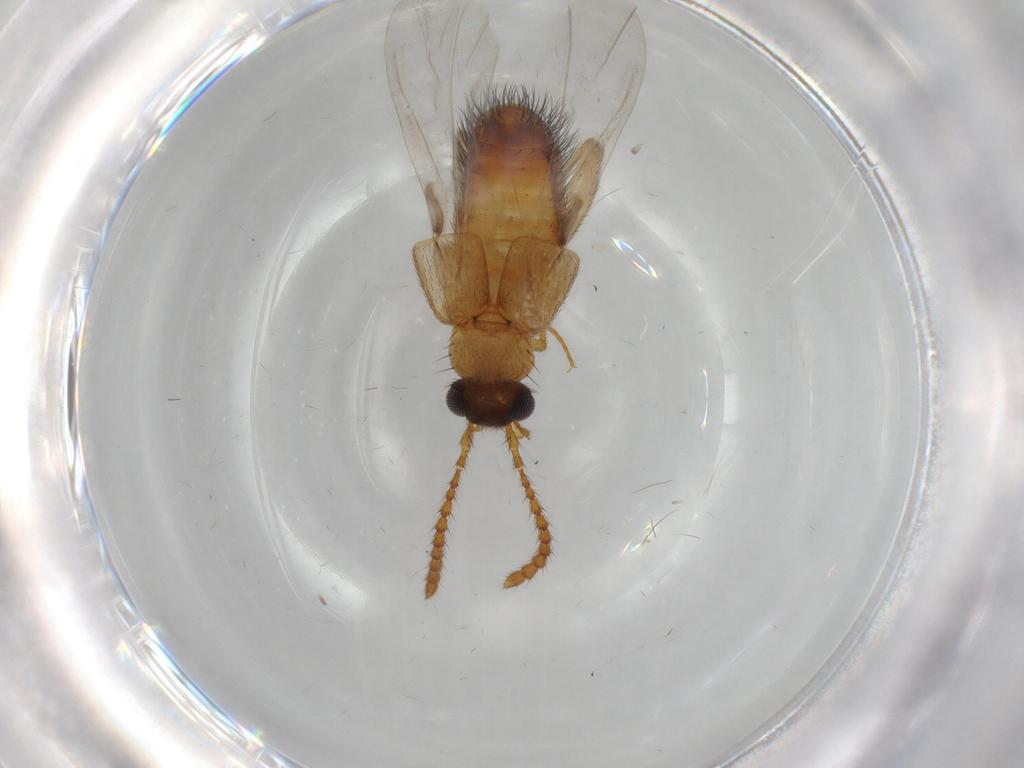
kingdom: Animalia
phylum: Arthropoda
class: Insecta
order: Coleoptera
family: Staphylinidae
